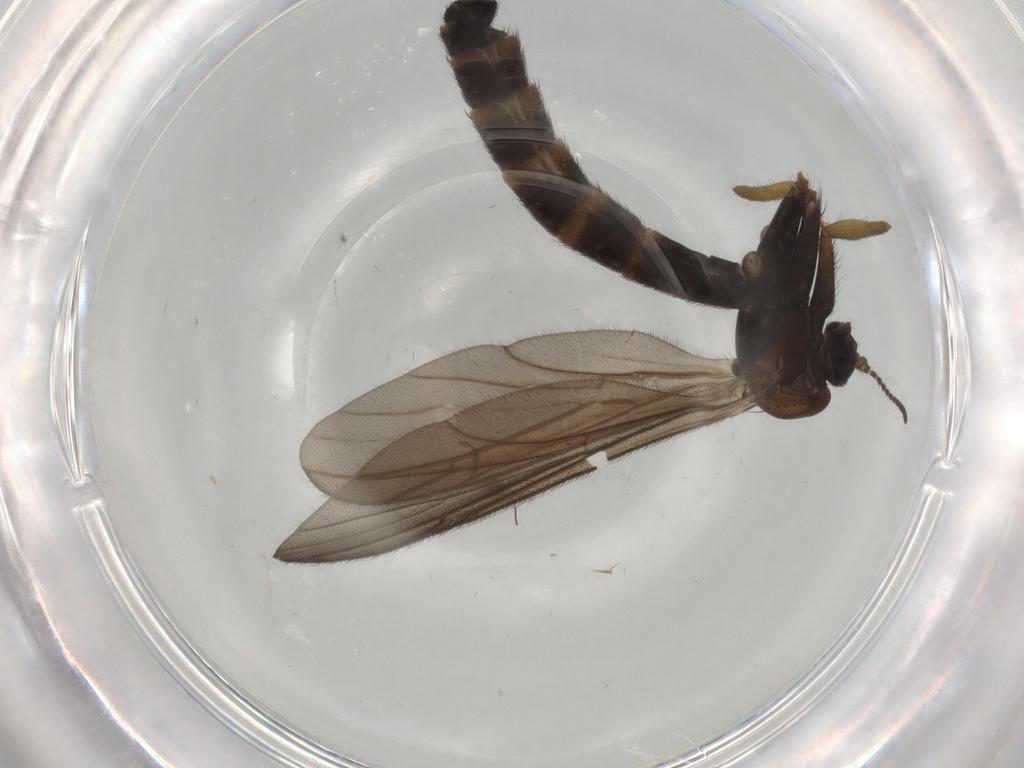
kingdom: Animalia
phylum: Arthropoda
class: Insecta
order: Diptera
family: Ditomyiidae
